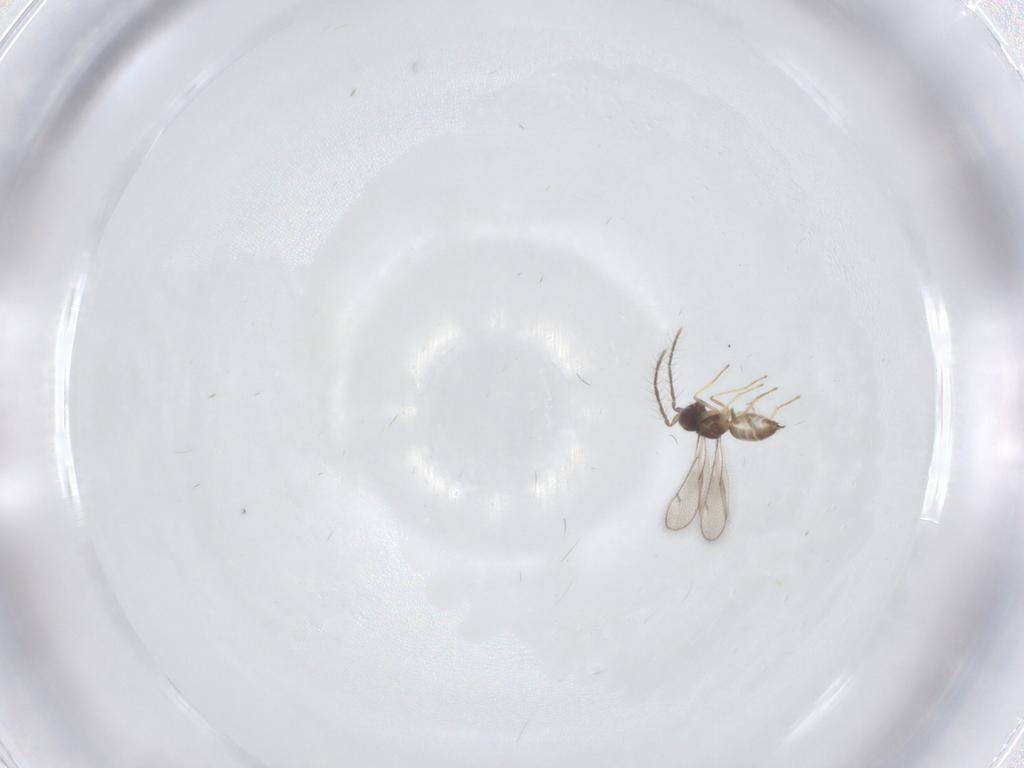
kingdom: Animalia
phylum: Arthropoda
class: Insecta
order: Hymenoptera
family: Eulophidae
